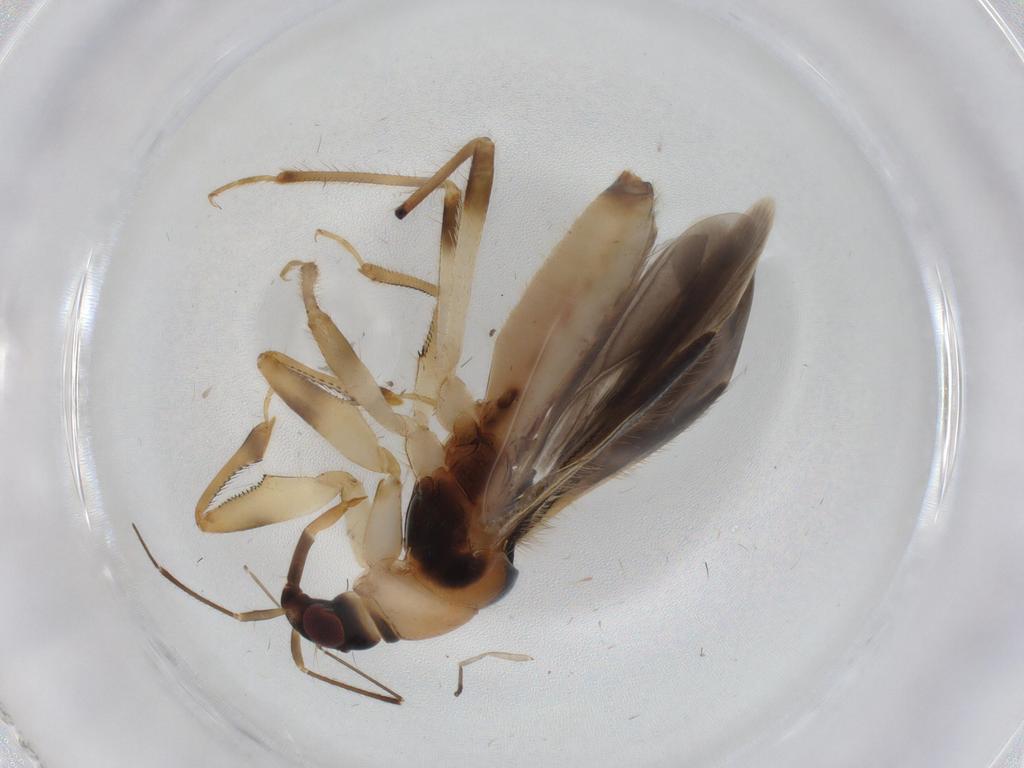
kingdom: Animalia
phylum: Arthropoda
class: Insecta
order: Hemiptera
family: Nabidae
